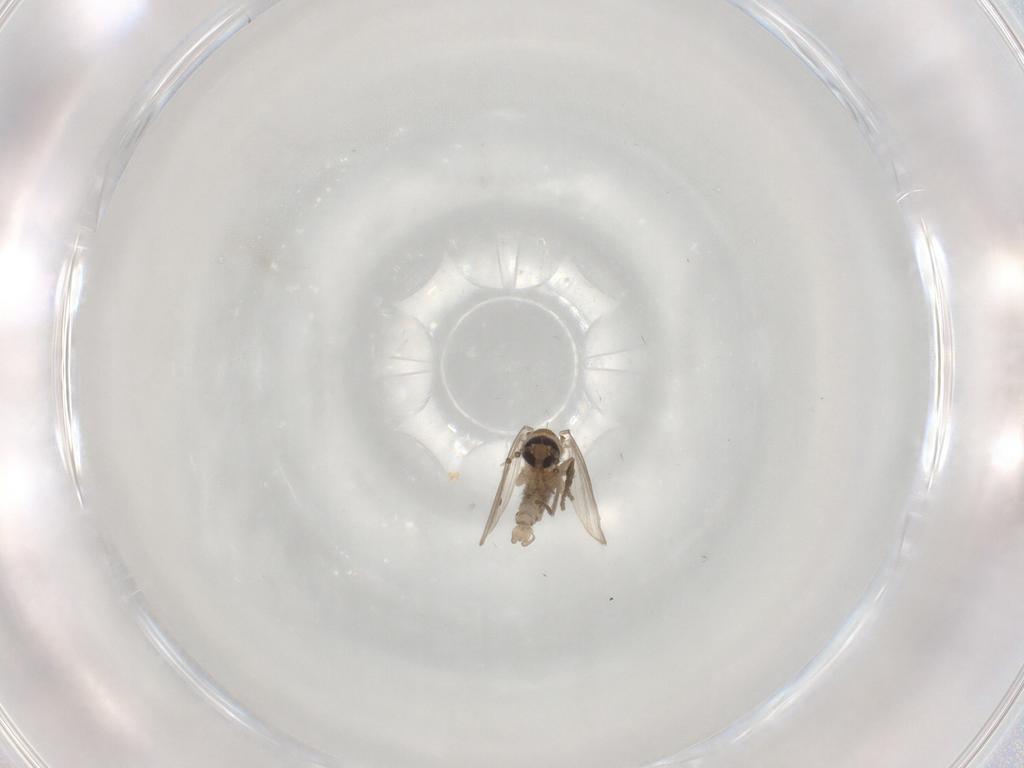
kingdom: Animalia
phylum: Arthropoda
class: Insecta
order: Diptera
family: Psychodidae
